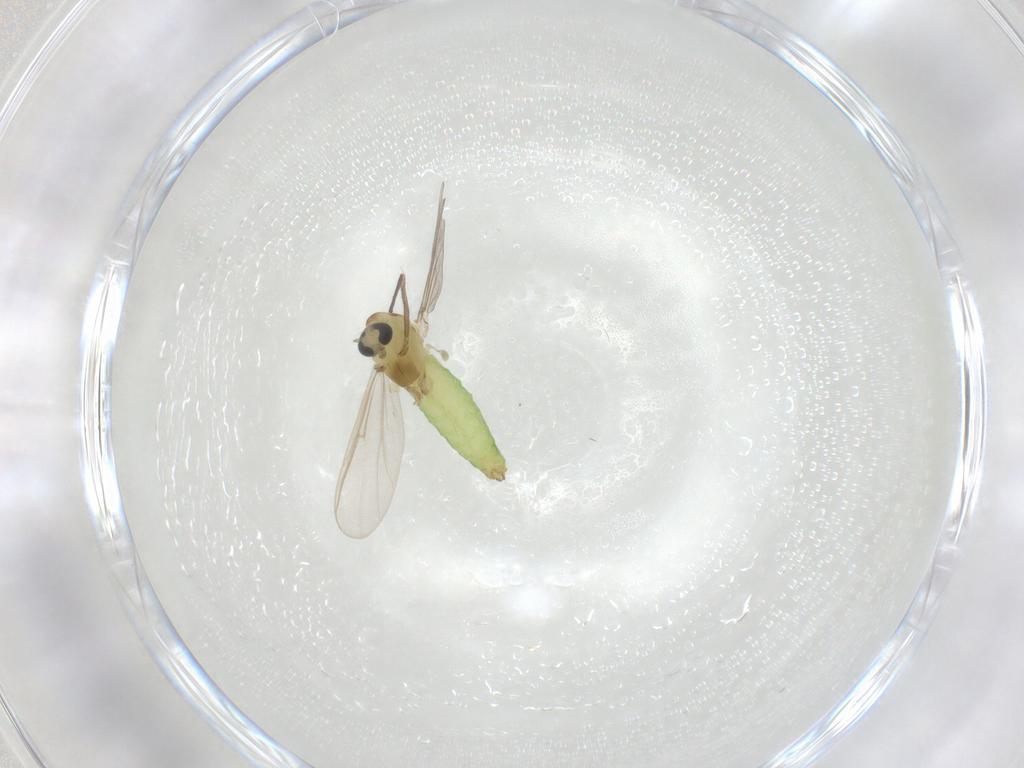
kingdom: Animalia
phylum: Arthropoda
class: Insecta
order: Diptera
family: Chironomidae
